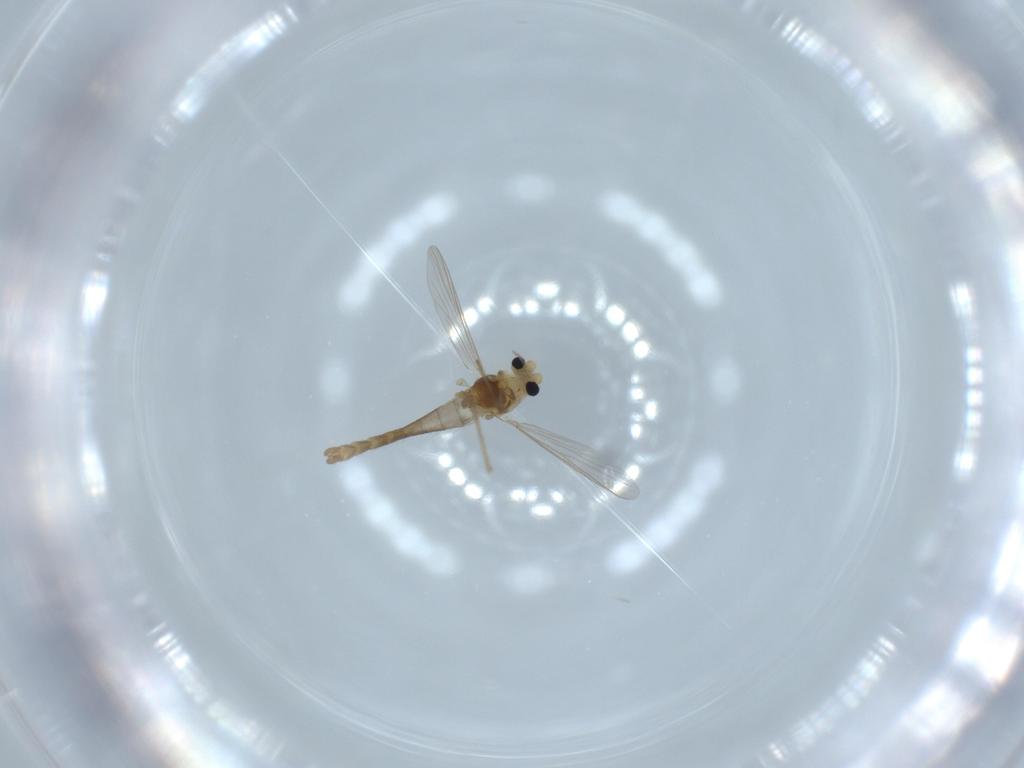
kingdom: Animalia
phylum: Arthropoda
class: Insecta
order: Diptera
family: Chironomidae
